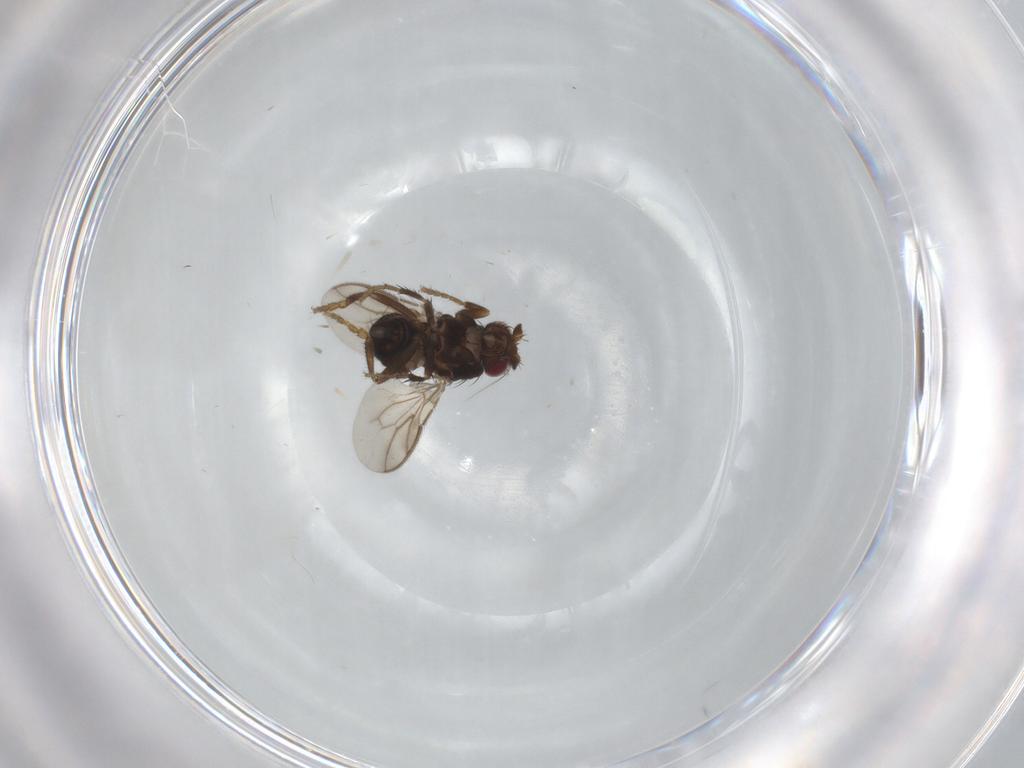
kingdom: Animalia
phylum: Arthropoda
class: Insecta
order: Diptera
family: Sphaeroceridae
